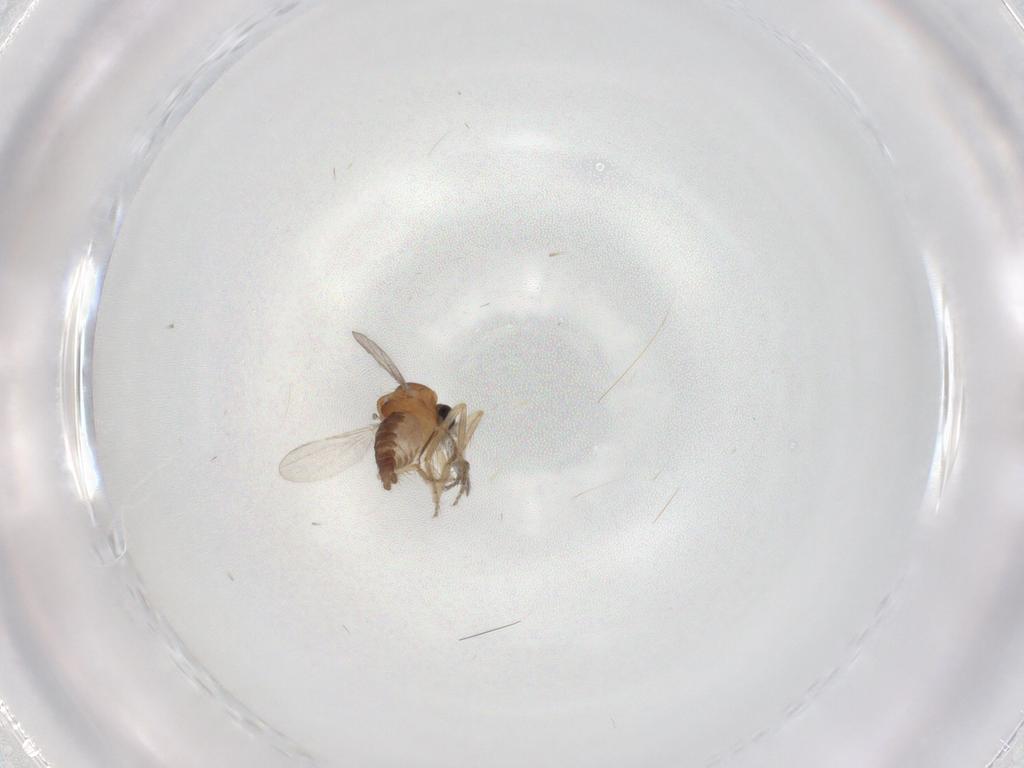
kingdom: Animalia
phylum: Arthropoda
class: Insecta
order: Diptera
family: Ceratopogonidae
